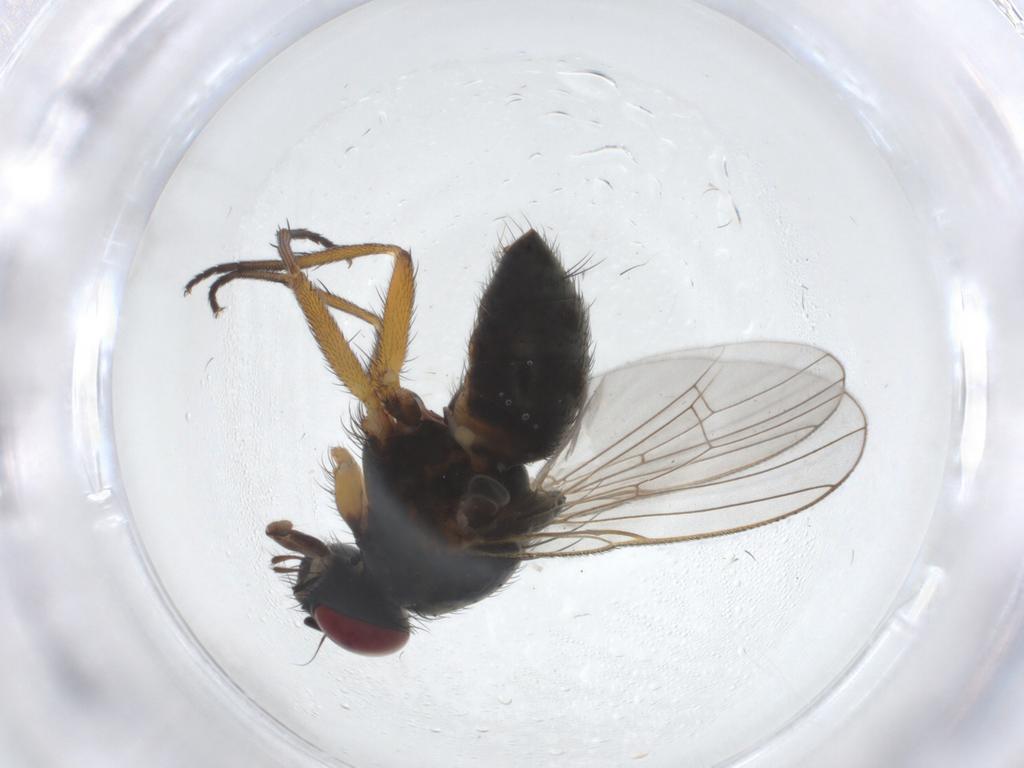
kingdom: Animalia
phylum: Arthropoda
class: Insecta
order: Diptera
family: Muscidae
